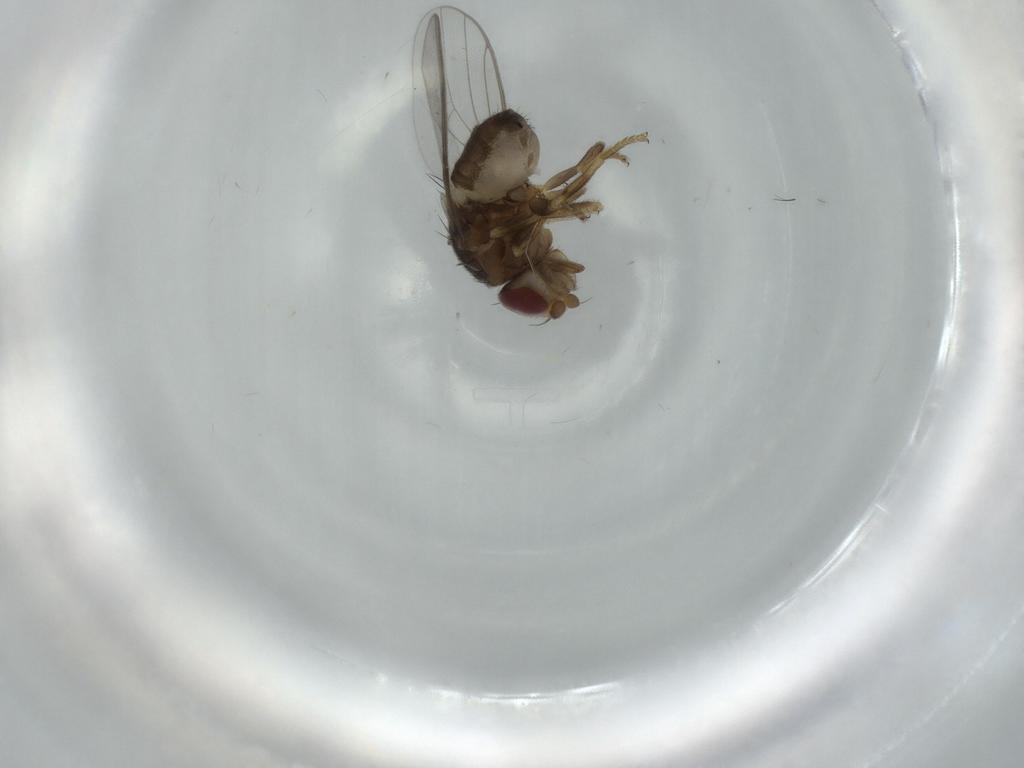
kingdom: Animalia
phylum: Arthropoda
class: Insecta
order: Diptera
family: Chloropidae
